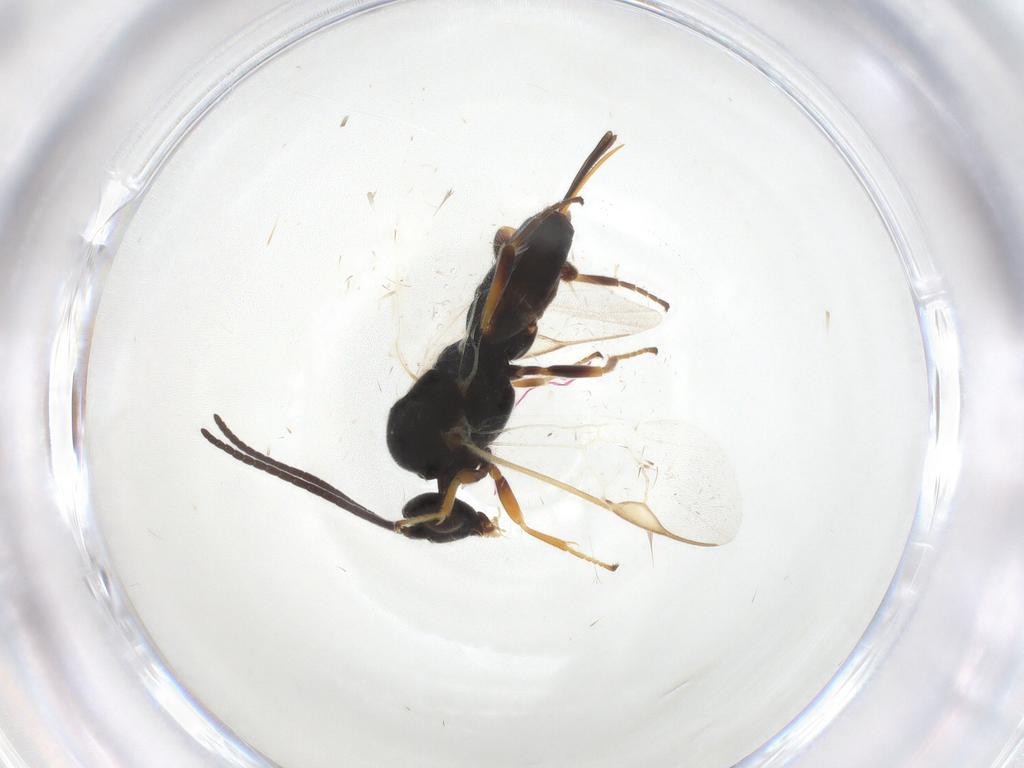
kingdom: Animalia
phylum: Arthropoda
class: Insecta
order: Hymenoptera
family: Braconidae
